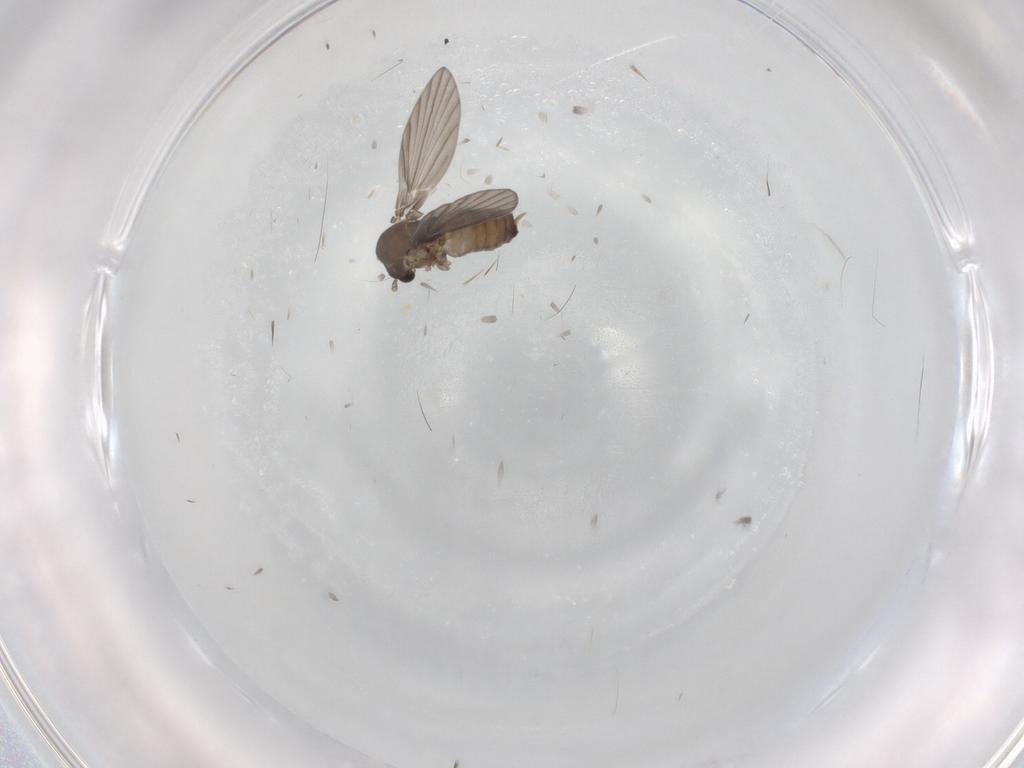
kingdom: Animalia
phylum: Arthropoda
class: Insecta
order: Diptera
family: Psychodidae
